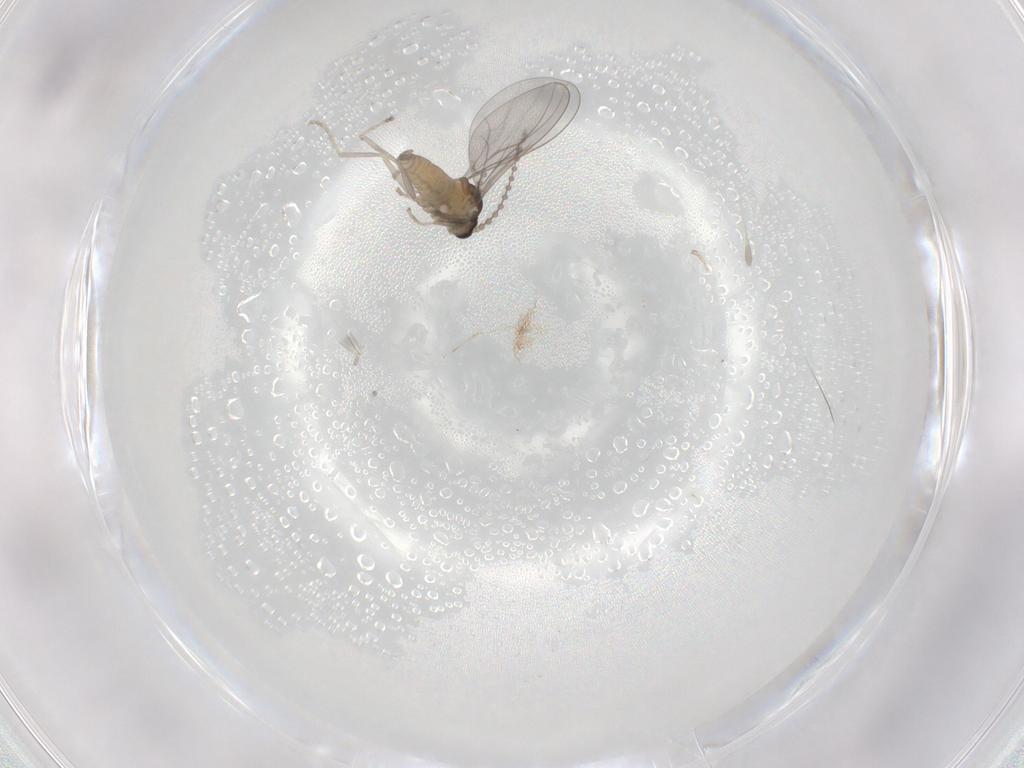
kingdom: Animalia
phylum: Arthropoda
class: Insecta
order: Diptera
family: Cecidomyiidae
